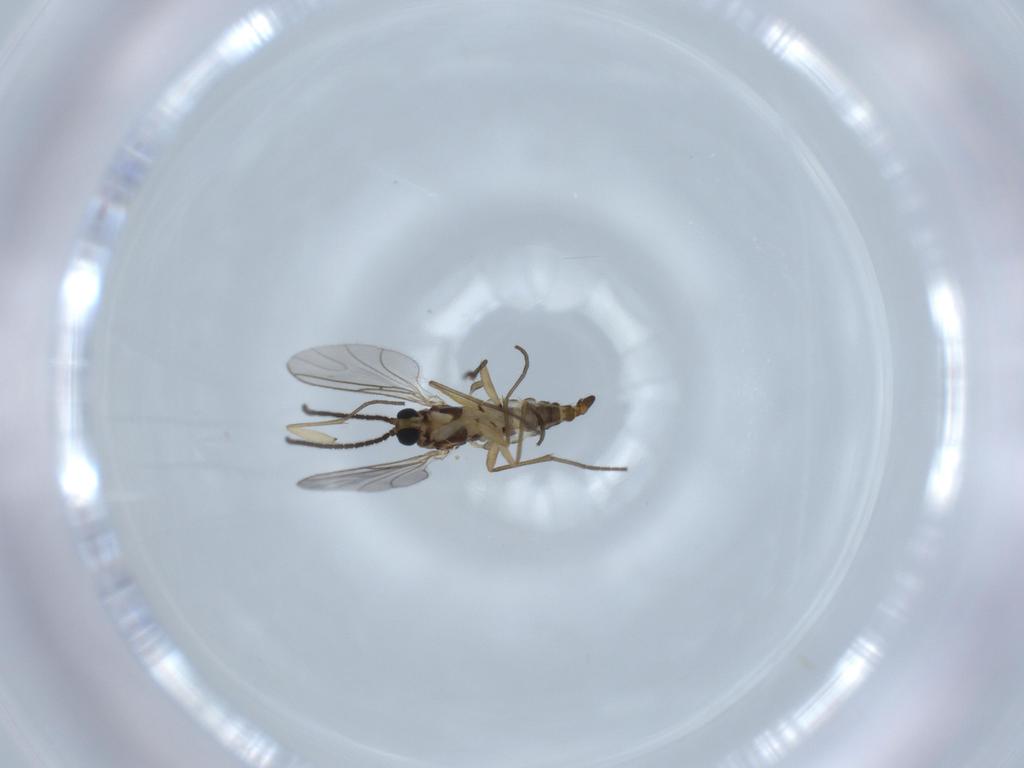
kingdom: Animalia
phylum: Arthropoda
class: Insecta
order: Diptera
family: Sciaridae
